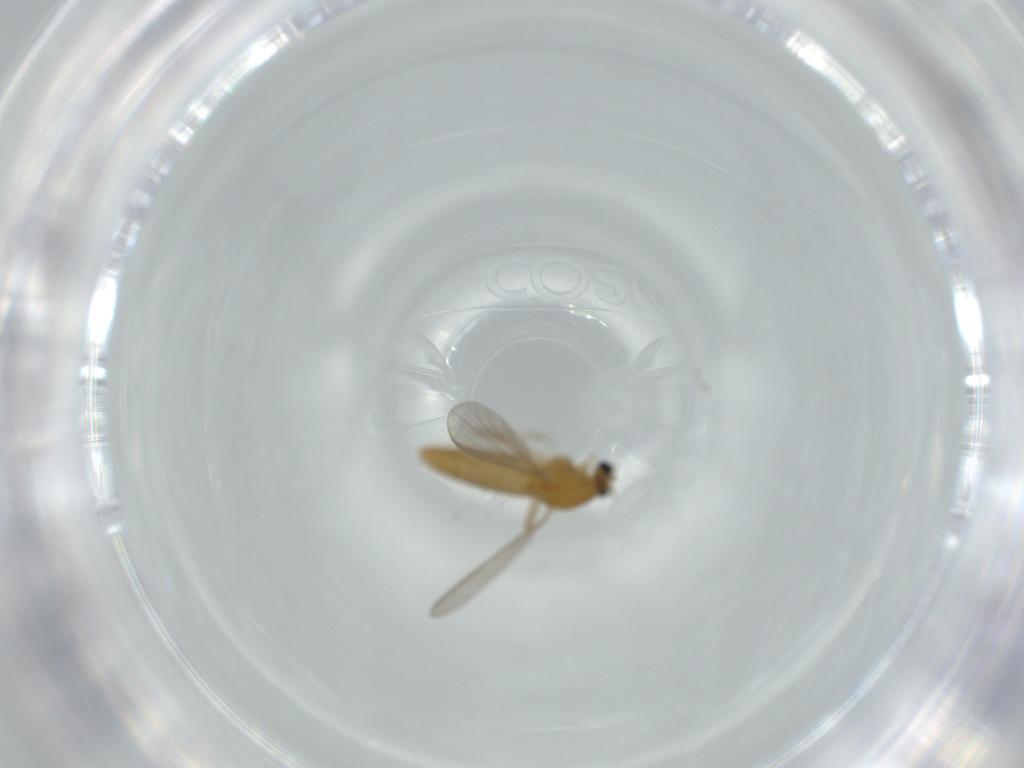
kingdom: Animalia
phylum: Arthropoda
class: Insecta
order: Diptera
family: Chironomidae
